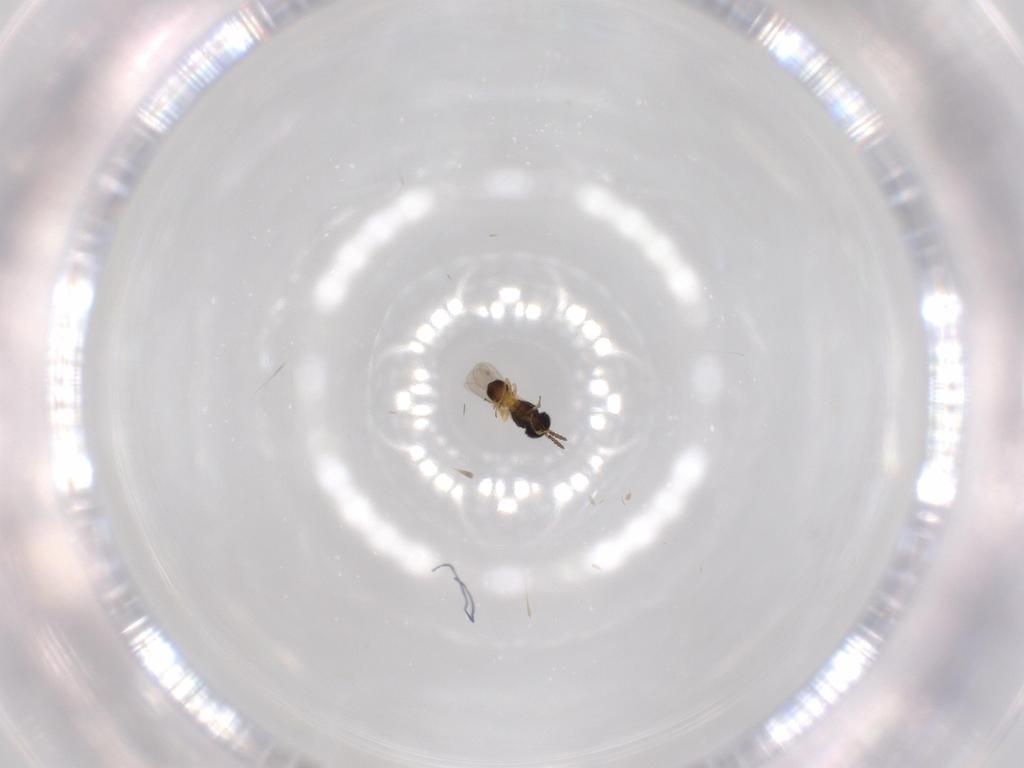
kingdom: Animalia
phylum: Arthropoda
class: Insecta
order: Hymenoptera
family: Scelionidae
